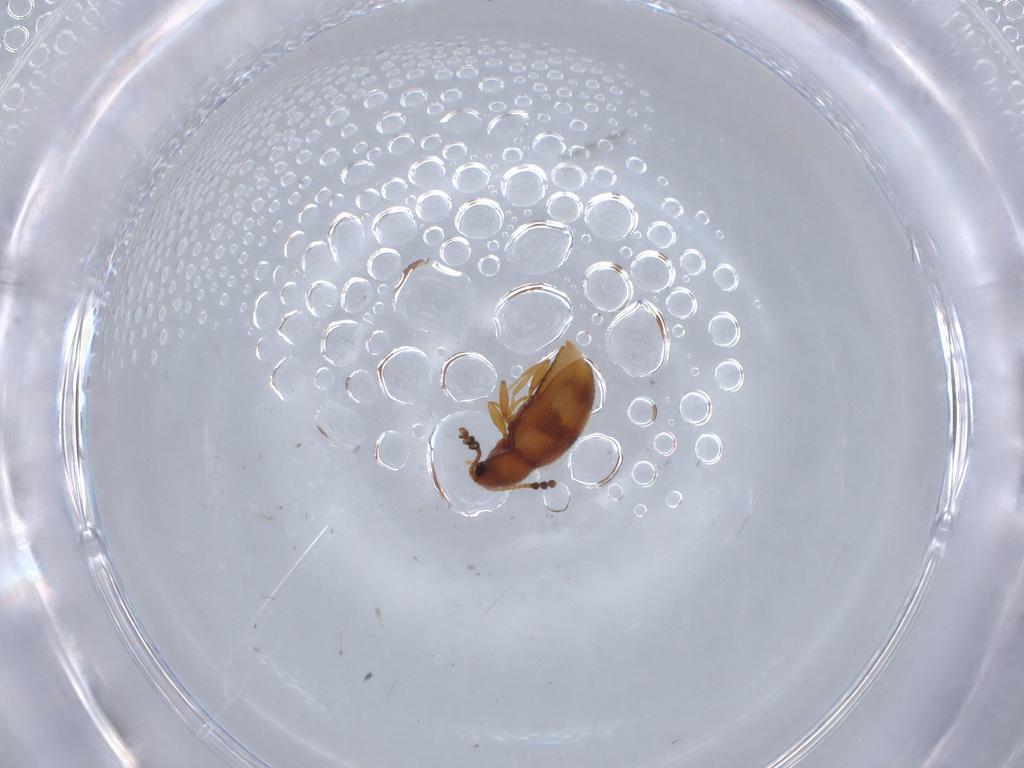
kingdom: Animalia
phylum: Arthropoda
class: Insecta
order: Coleoptera
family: Erotylidae
